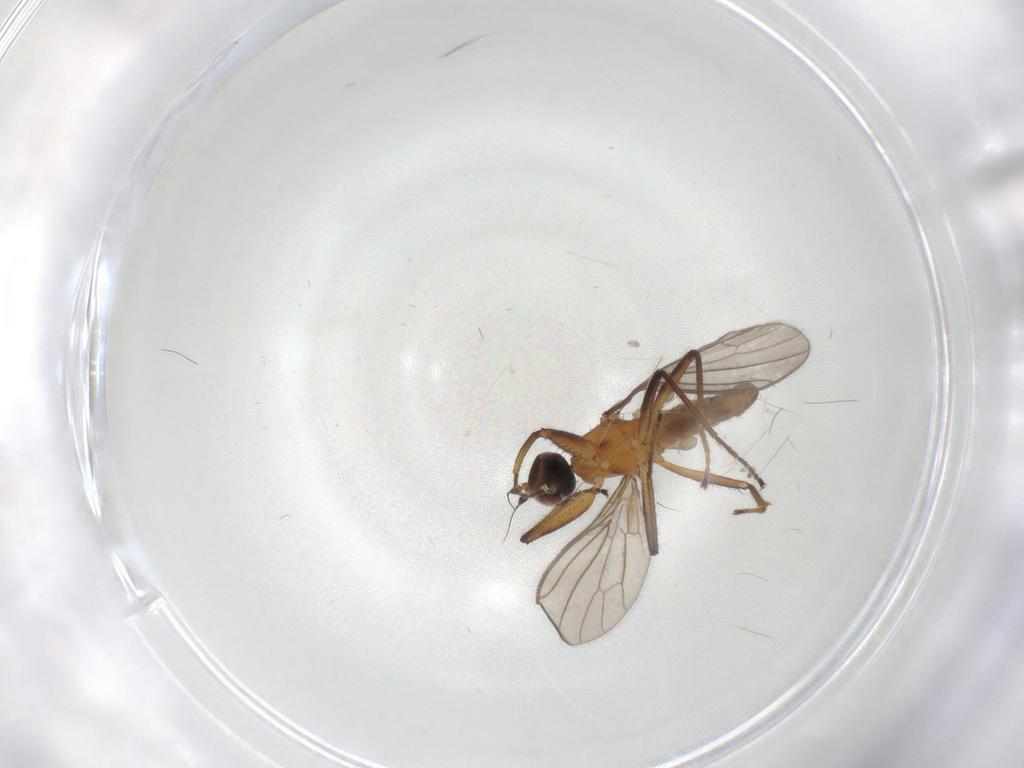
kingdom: Animalia
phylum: Arthropoda
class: Insecta
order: Diptera
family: Empididae
